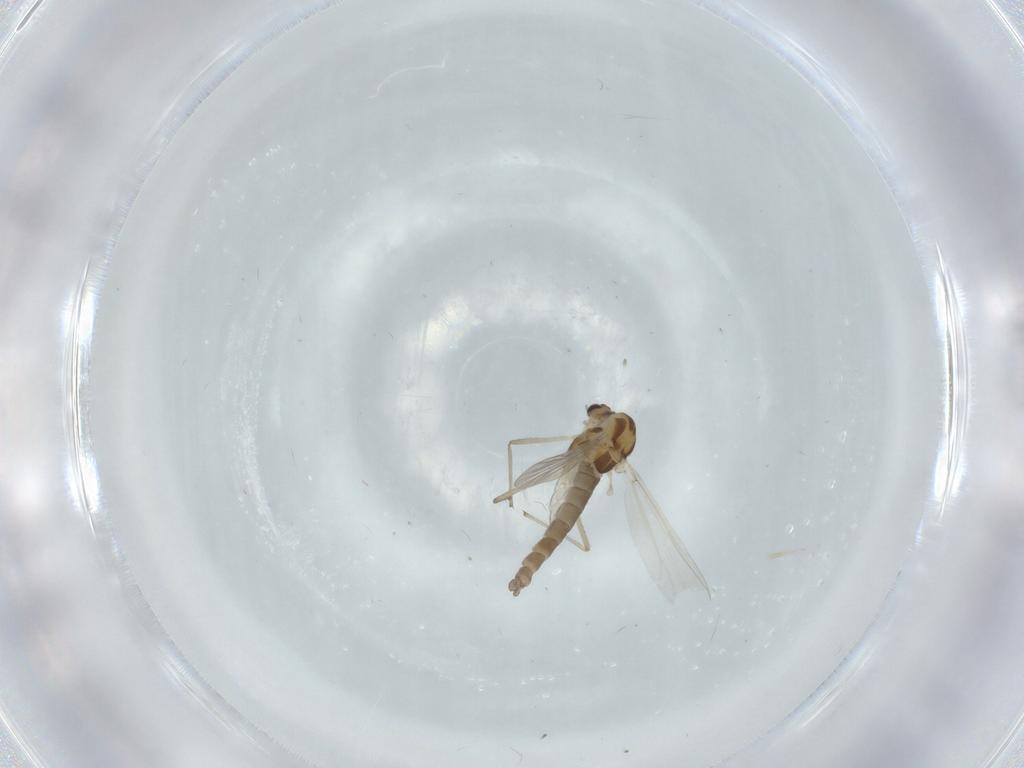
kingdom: Animalia
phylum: Arthropoda
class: Insecta
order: Diptera
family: Chironomidae
